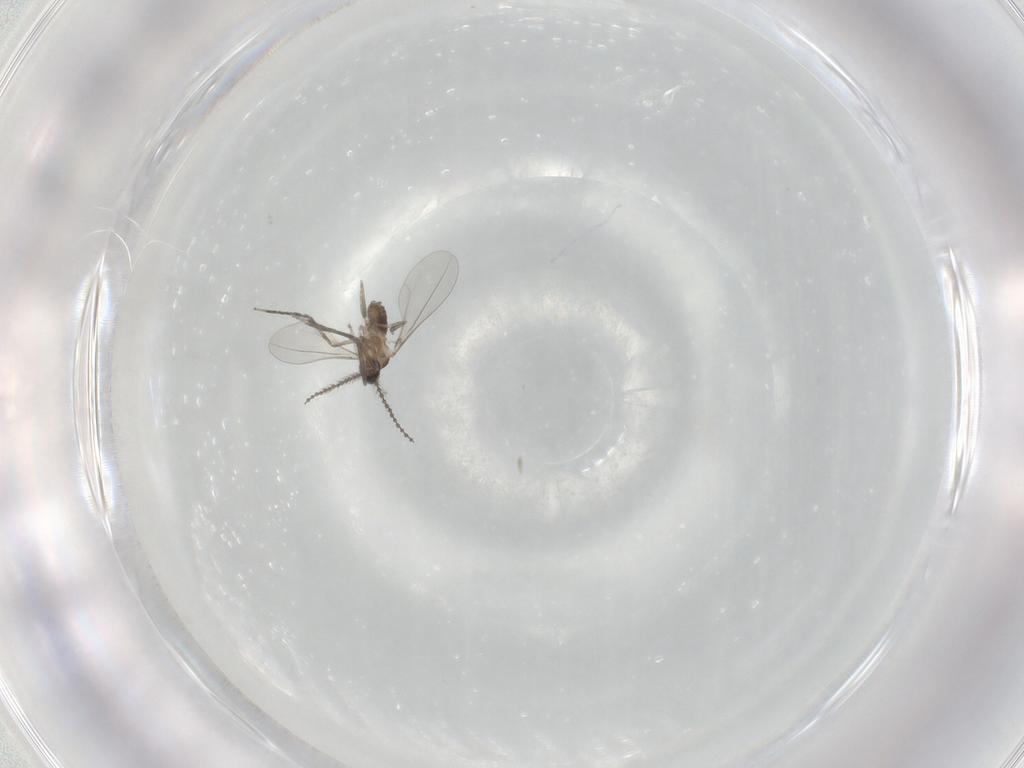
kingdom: Animalia
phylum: Arthropoda
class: Insecta
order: Diptera
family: Cecidomyiidae
